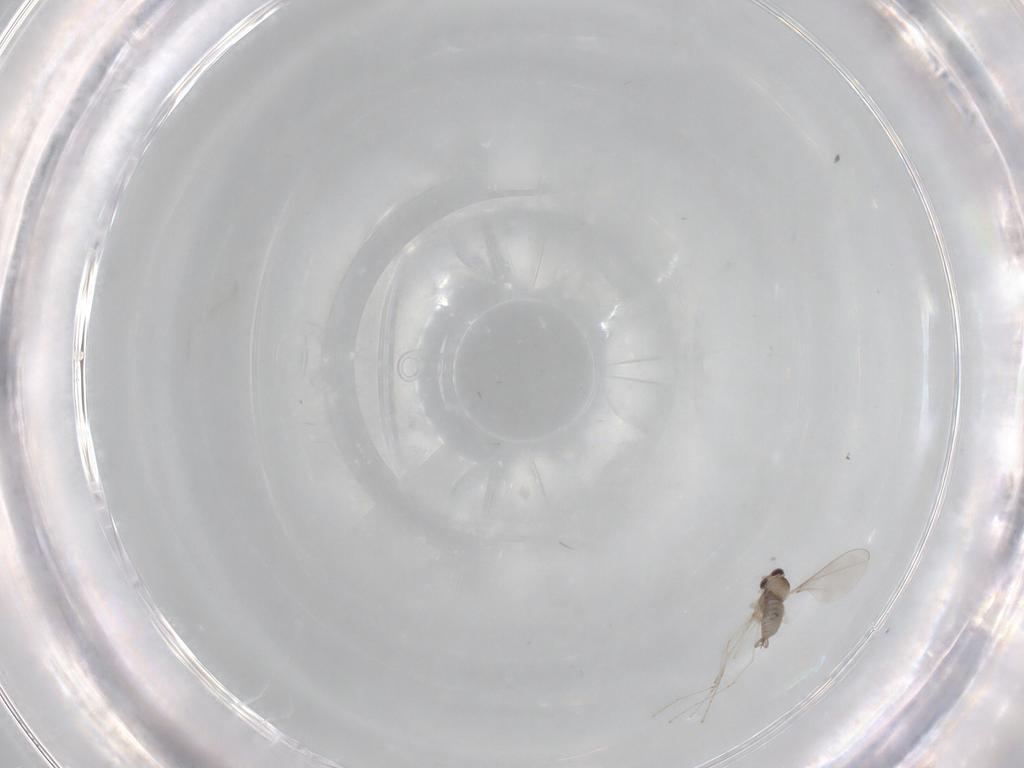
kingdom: Animalia
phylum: Arthropoda
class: Insecta
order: Diptera
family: Cecidomyiidae
